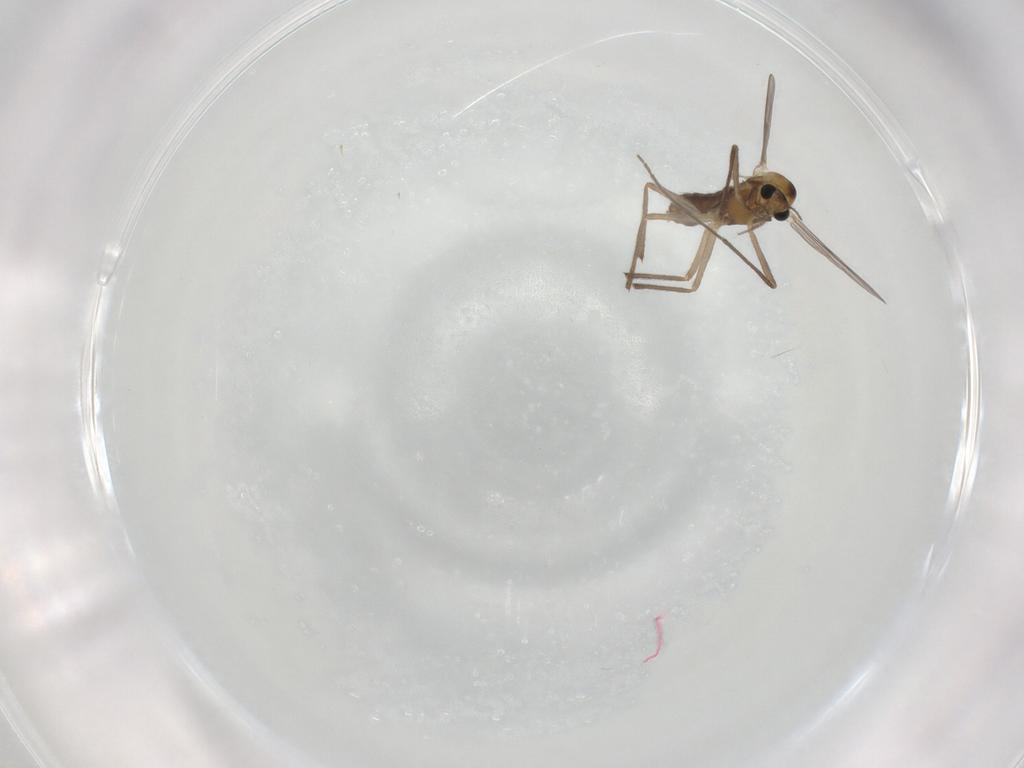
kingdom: Animalia
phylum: Arthropoda
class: Insecta
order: Diptera
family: Chironomidae
